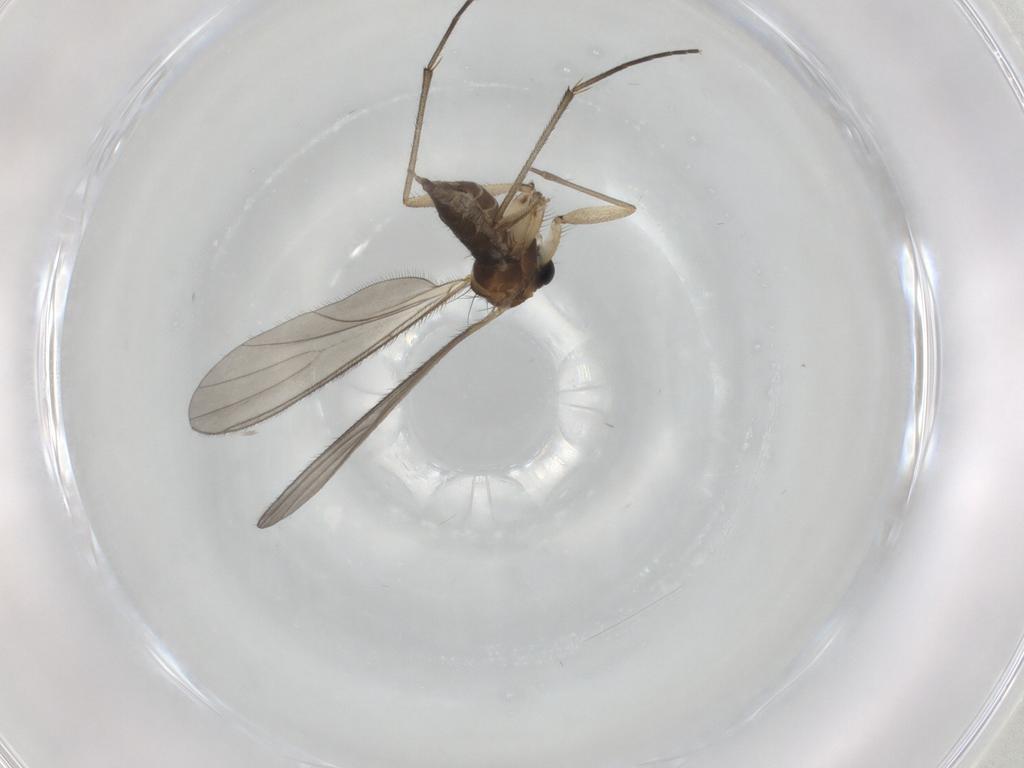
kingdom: Animalia
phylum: Arthropoda
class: Insecta
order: Diptera
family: Sciaridae
